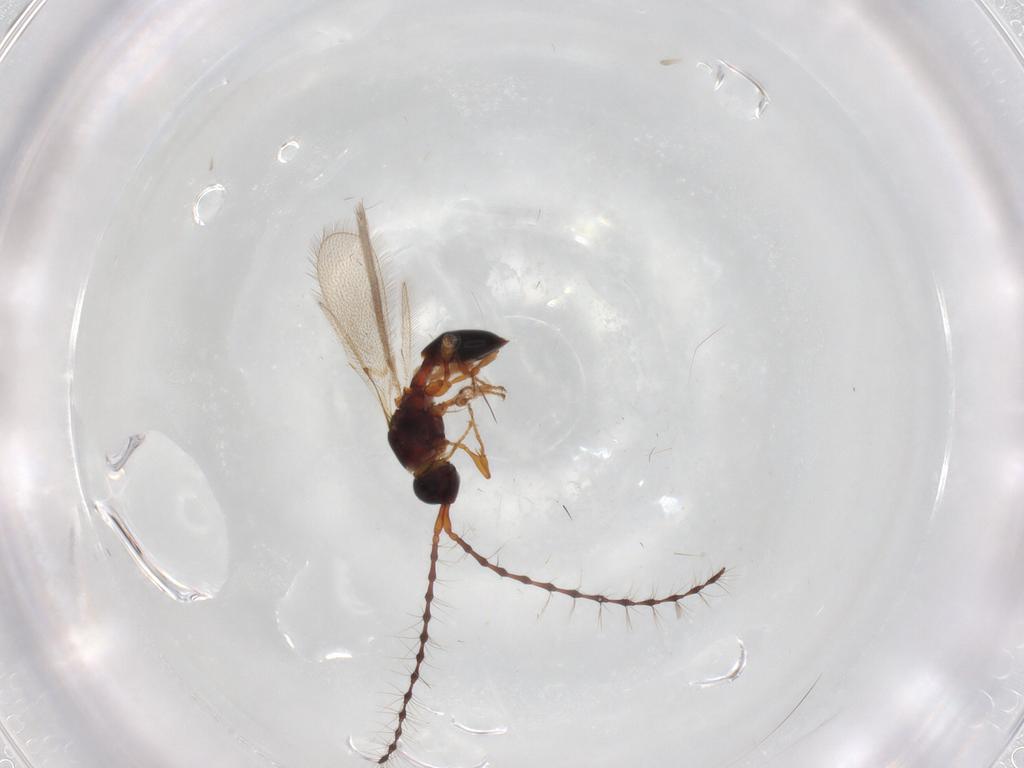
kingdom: Animalia
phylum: Arthropoda
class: Insecta
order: Hymenoptera
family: Diapriidae
